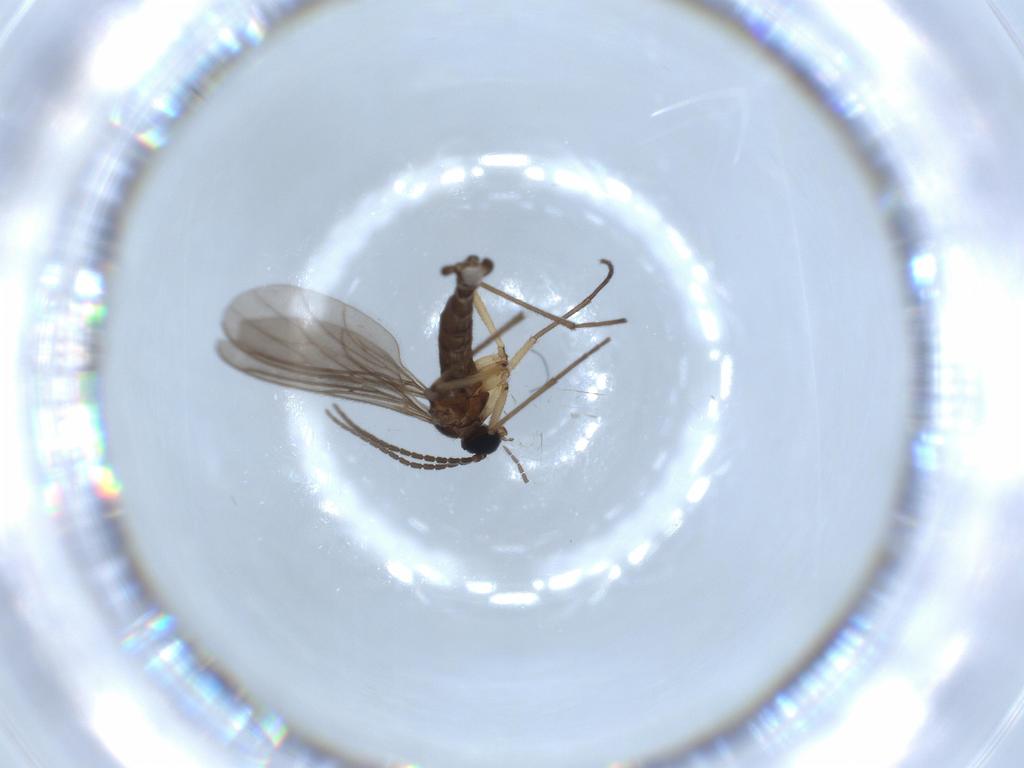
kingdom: Animalia
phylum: Arthropoda
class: Insecta
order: Diptera
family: Sciaridae
